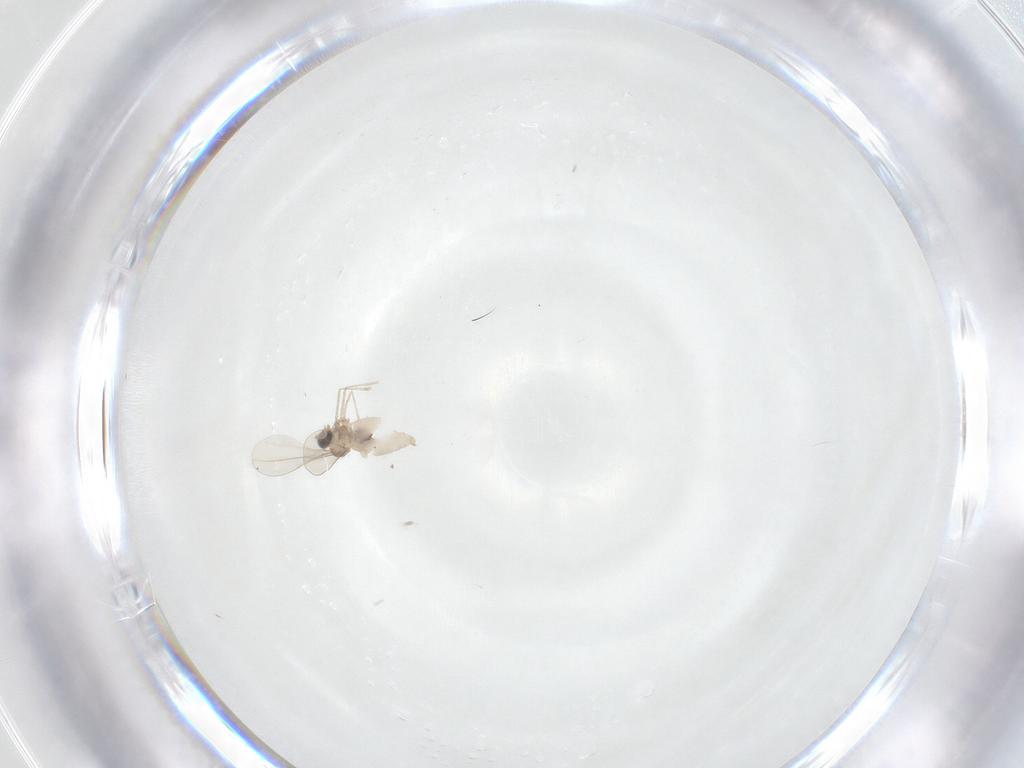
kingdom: Animalia
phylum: Arthropoda
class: Insecta
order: Diptera
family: Cecidomyiidae
